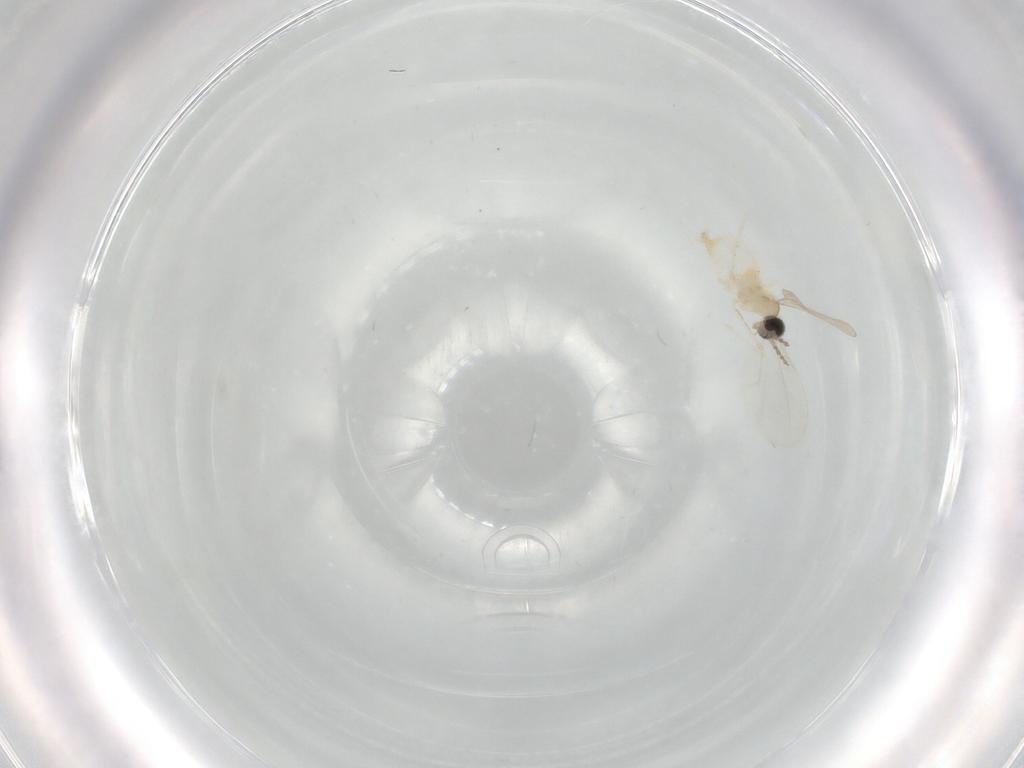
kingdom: Animalia
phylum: Arthropoda
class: Insecta
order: Diptera
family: Cecidomyiidae
